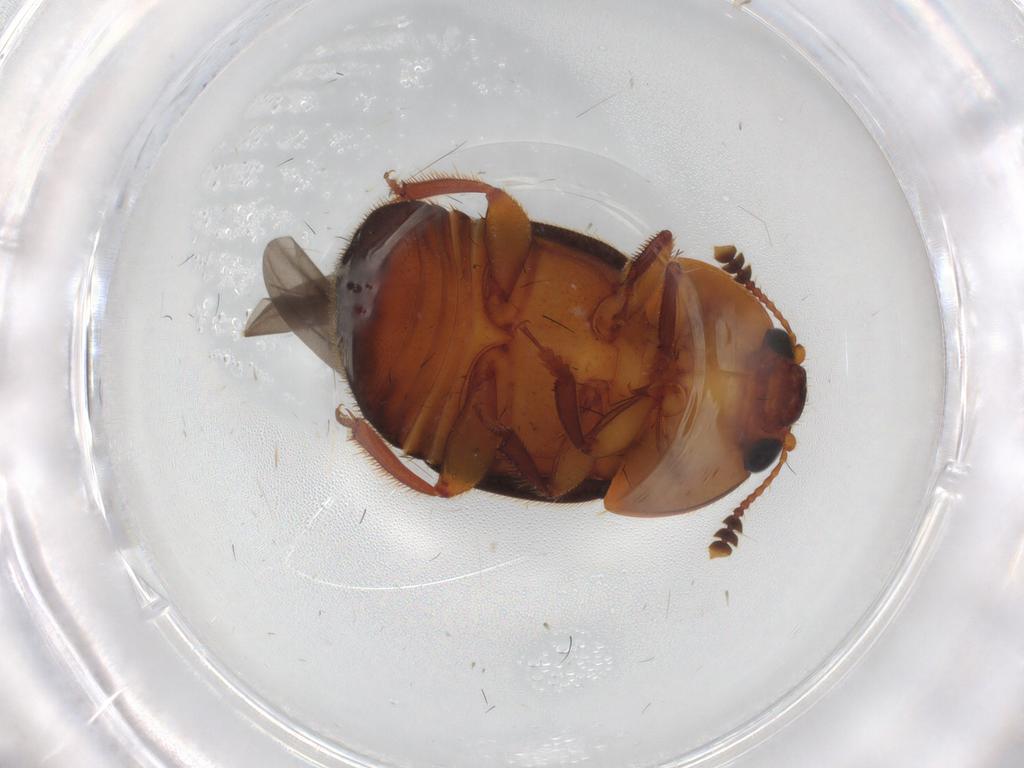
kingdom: Animalia
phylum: Arthropoda
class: Insecta
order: Coleoptera
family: Nitidulidae
